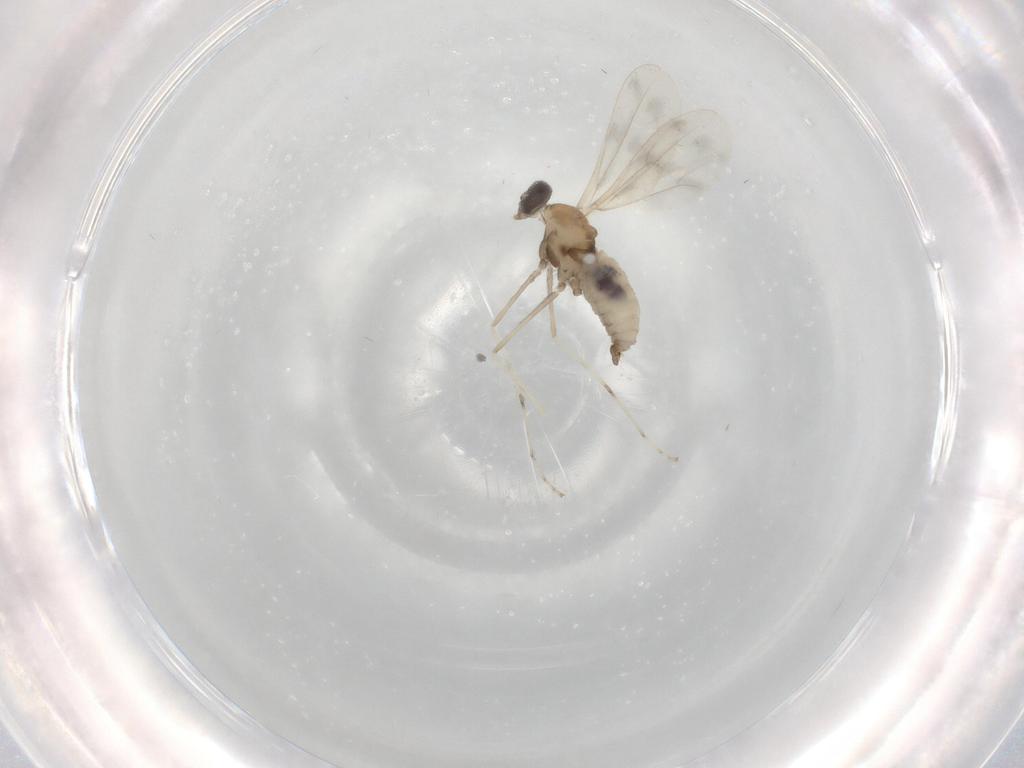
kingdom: Animalia
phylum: Arthropoda
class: Insecta
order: Diptera
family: Cecidomyiidae
